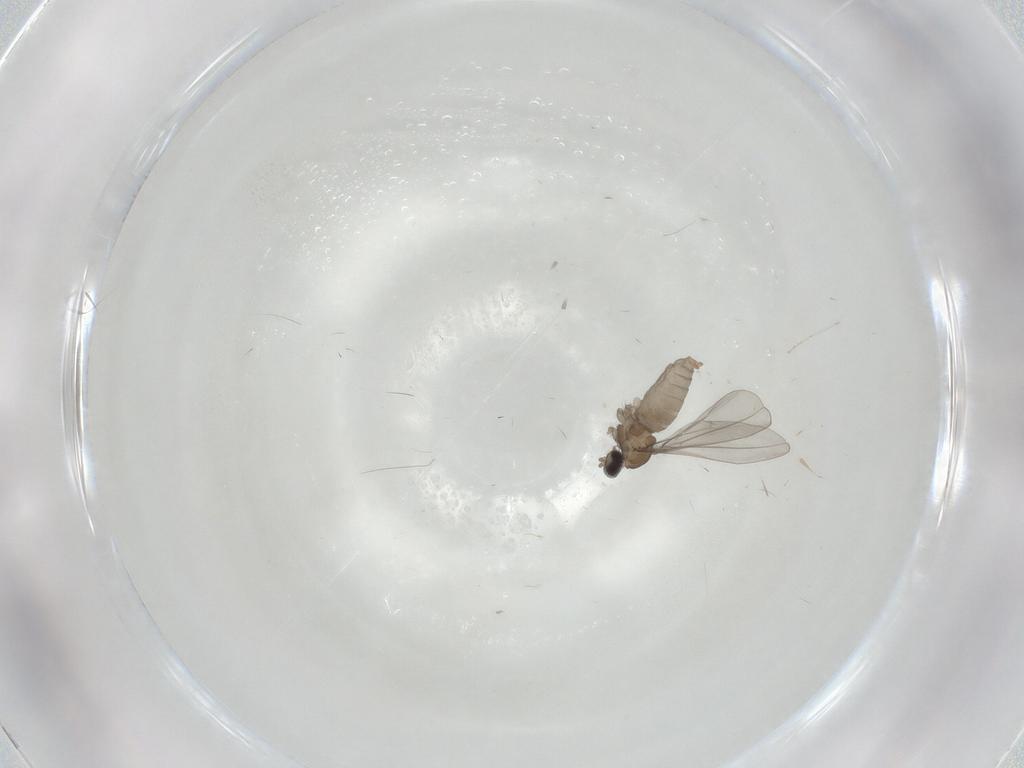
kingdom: Animalia
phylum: Arthropoda
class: Insecta
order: Diptera
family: Cecidomyiidae
